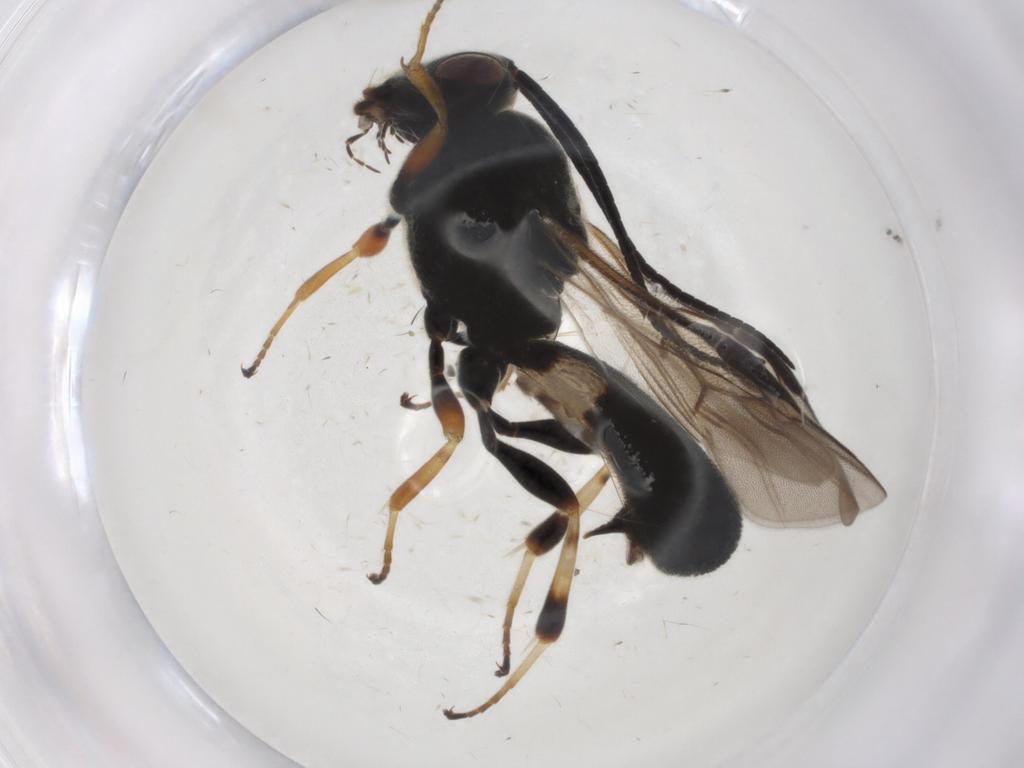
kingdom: Animalia
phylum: Arthropoda
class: Insecta
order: Hymenoptera
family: Braconidae
